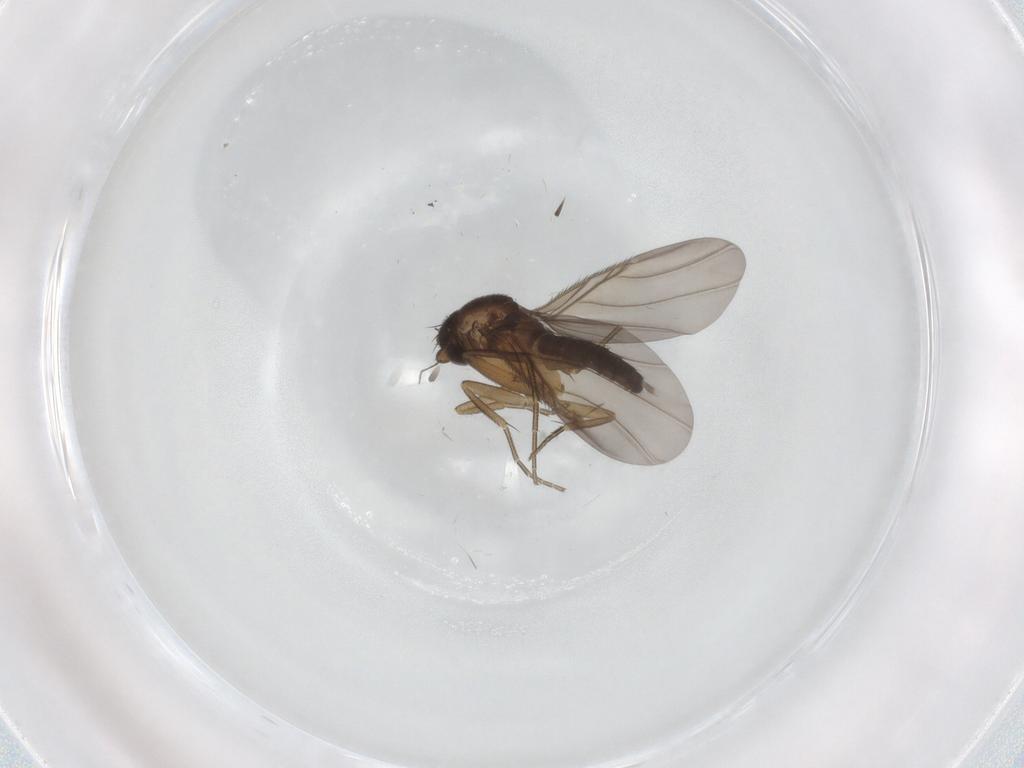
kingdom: Animalia
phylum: Arthropoda
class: Insecta
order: Diptera
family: Phoridae
